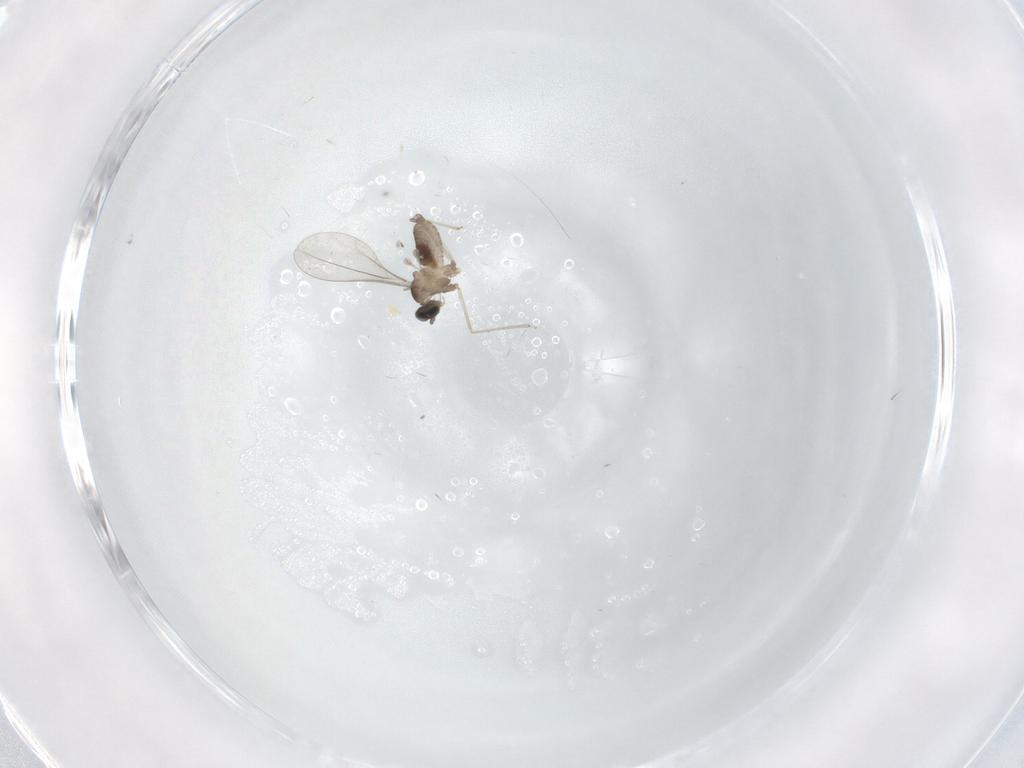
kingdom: Animalia
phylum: Arthropoda
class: Insecta
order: Diptera
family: Cecidomyiidae
